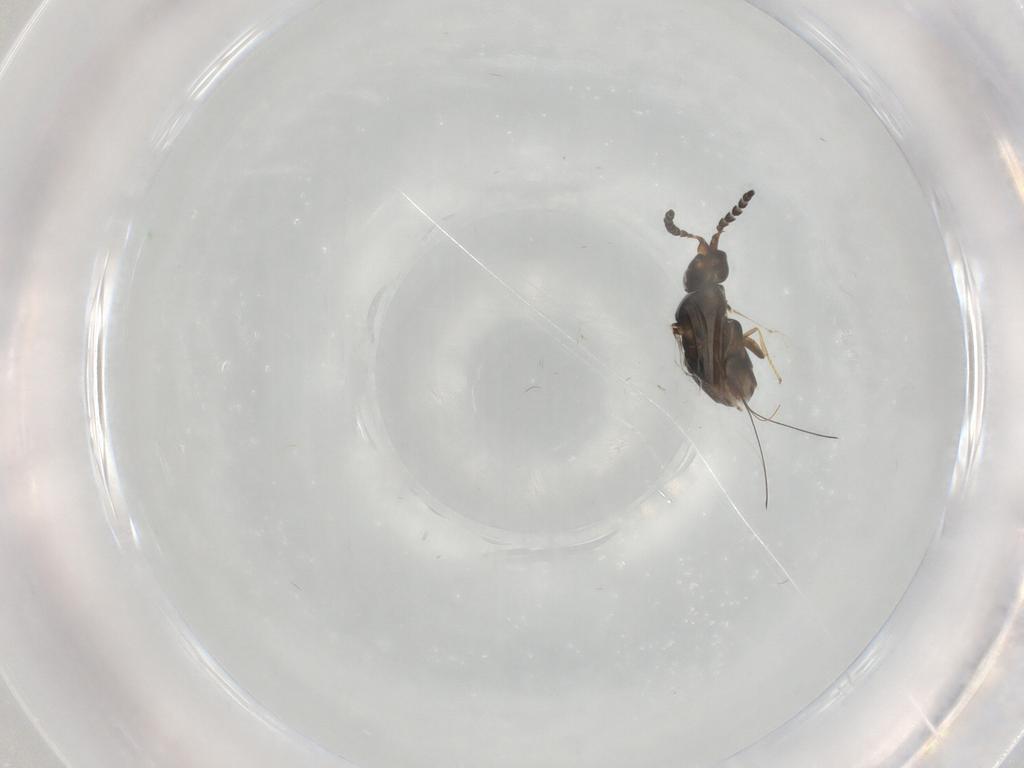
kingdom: Animalia
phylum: Arthropoda
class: Insecta
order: Hymenoptera
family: Agaonidae
